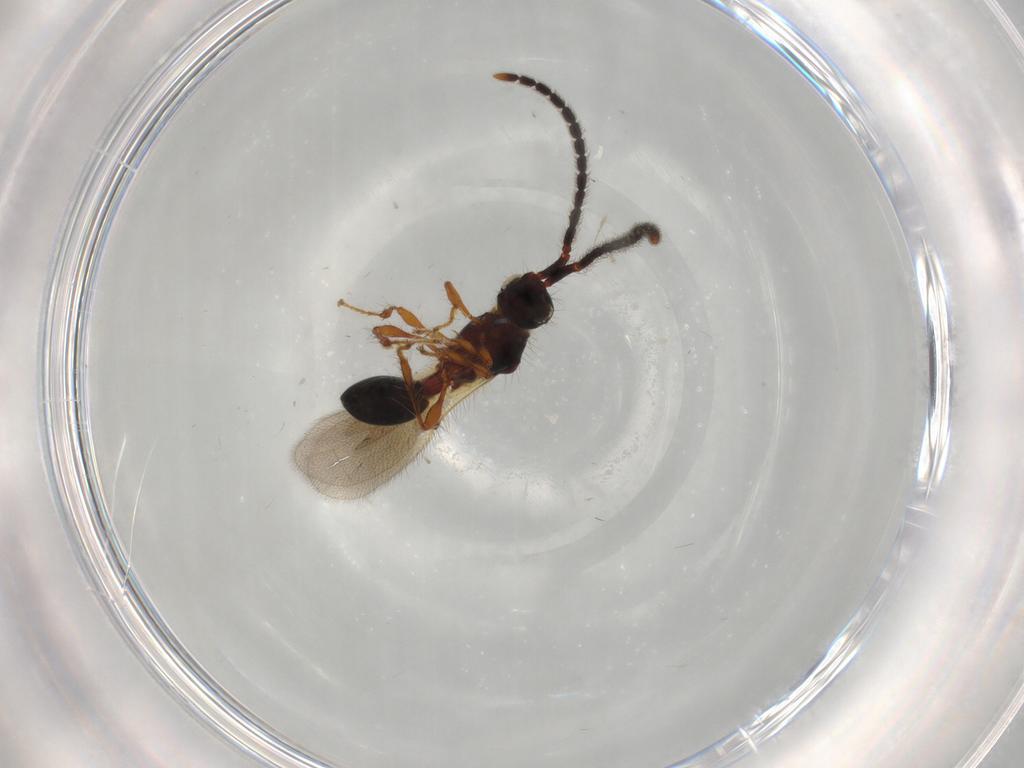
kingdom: Animalia
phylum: Arthropoda
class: Insecta
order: Hymenoptera
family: Diapriidae
